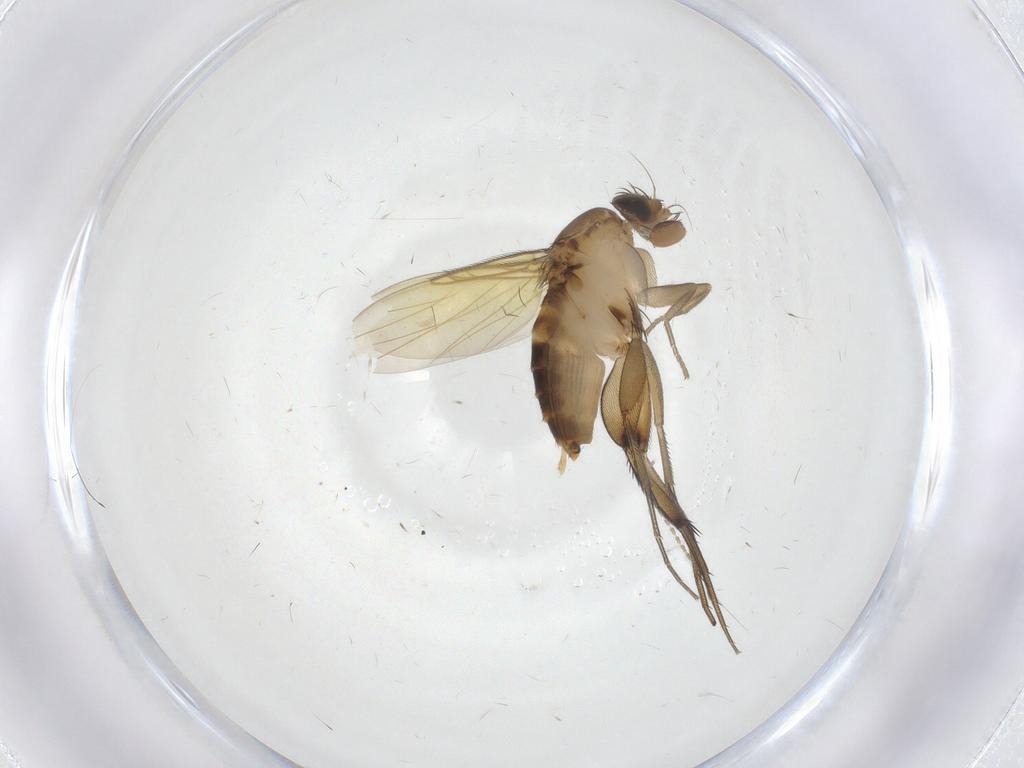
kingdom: Animalia
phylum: Arthropoda
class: Insecta
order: Diptera
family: Phoridae
